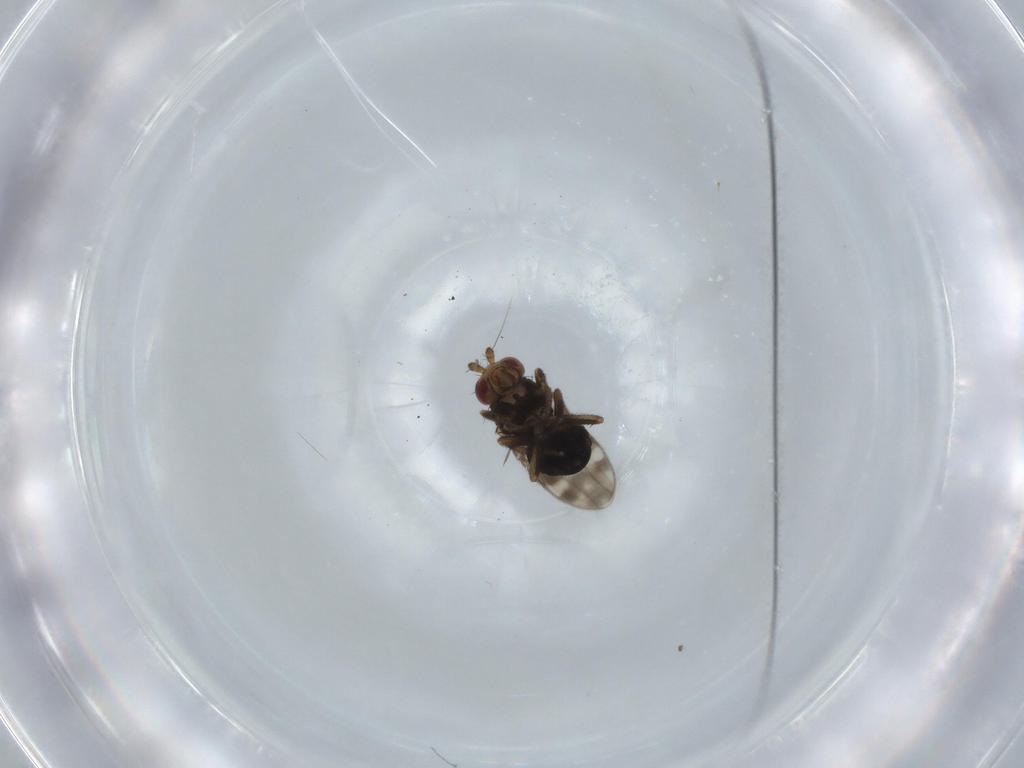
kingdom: Animalia
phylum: Arthropoda
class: Insecta
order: Diptera
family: Sphaeroceridae
